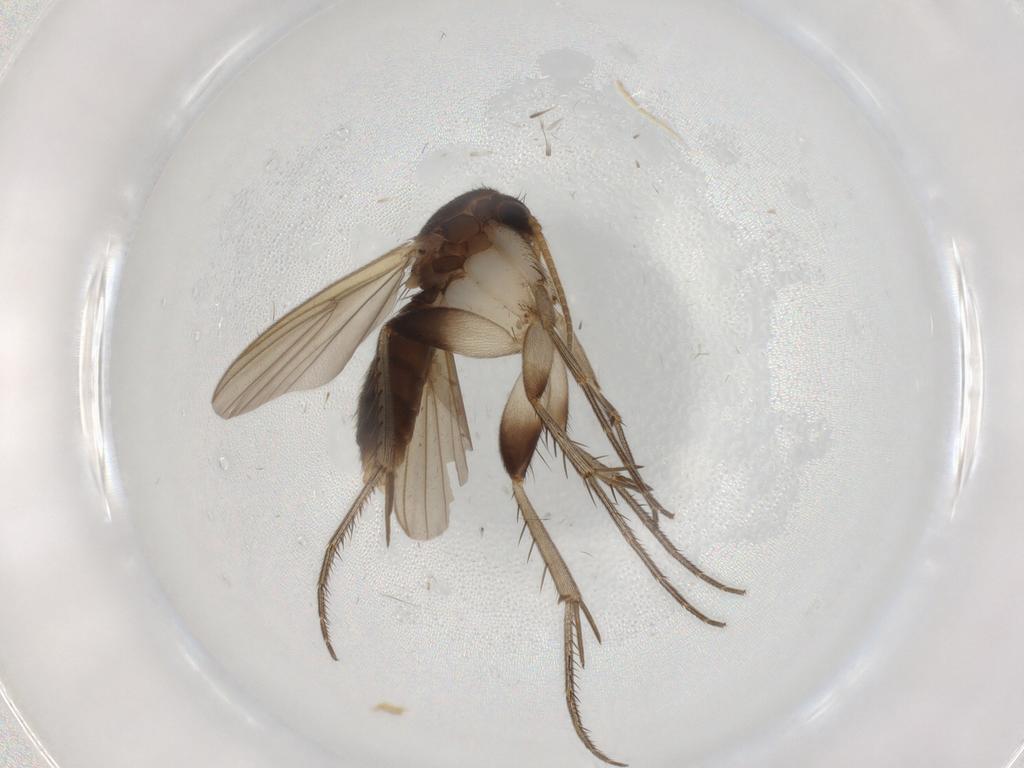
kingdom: Animalia
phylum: Arthropoda
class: Insecta
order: Diptera
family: Mycetophilidae
